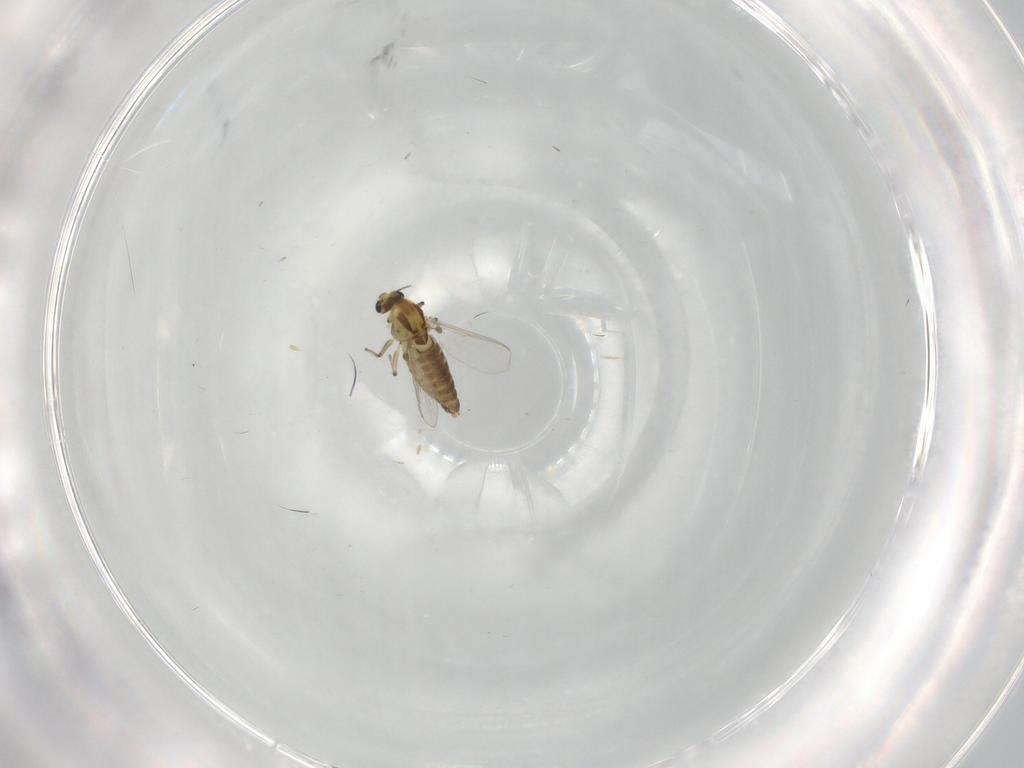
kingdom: Animalia
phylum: Arthropoda
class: Insecta
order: Diptera
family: Chironomidae
